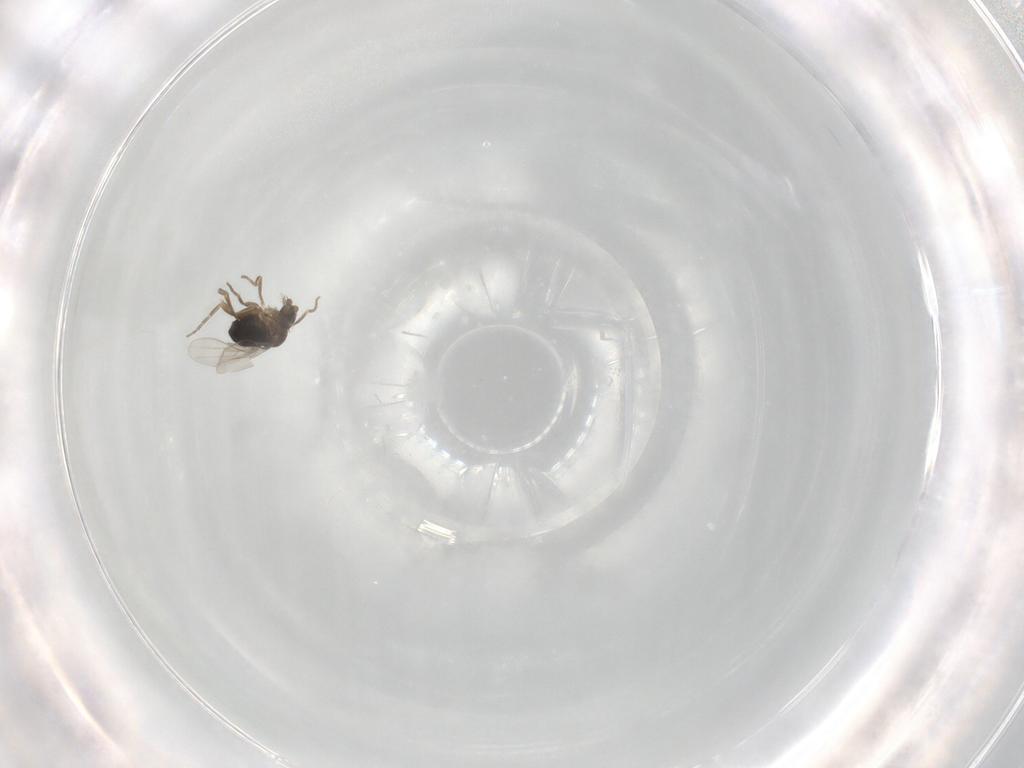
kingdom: Animalia
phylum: Arthropoda
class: Insecta
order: Diptera
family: Phoridae
